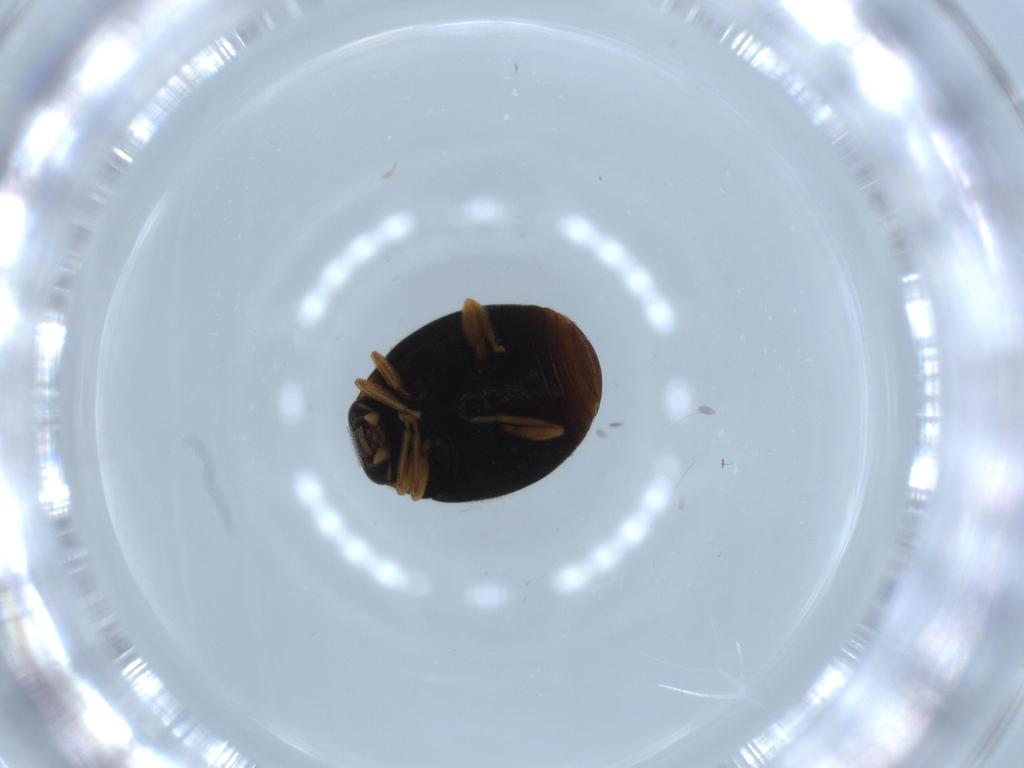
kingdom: Animalia
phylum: Arthropoda
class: Insecta
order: Coleoptera
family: Coccinellidae
